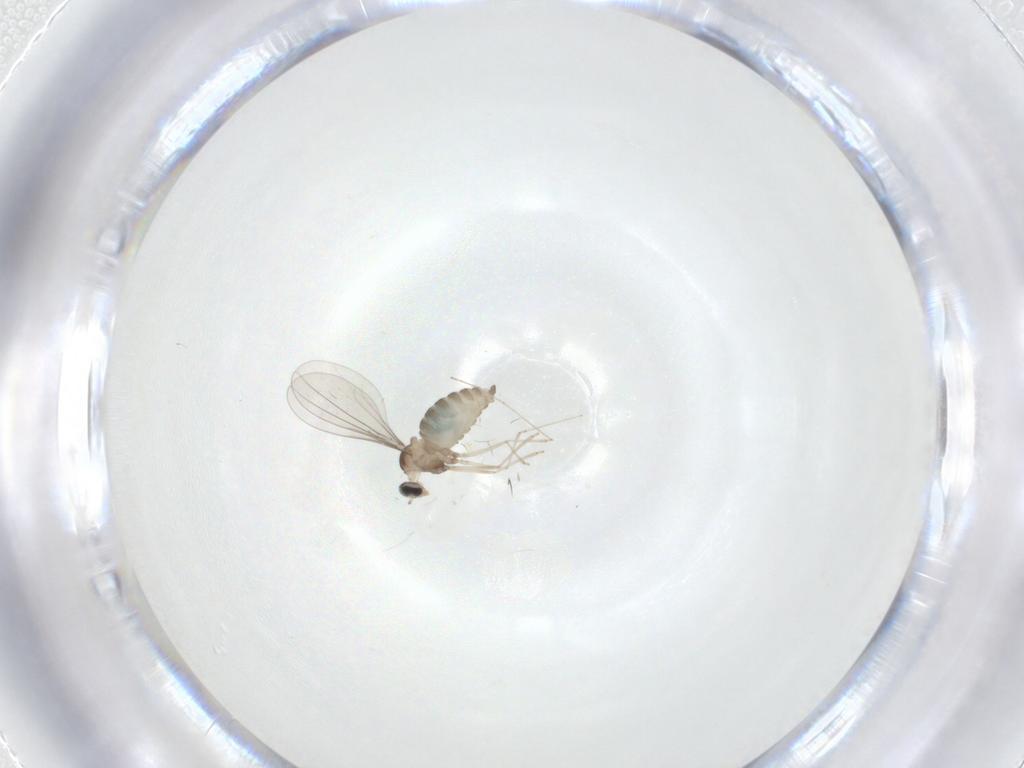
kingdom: Animalia
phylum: Arthropoda
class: Insecta
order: Diptera
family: Cecidomyiidae
